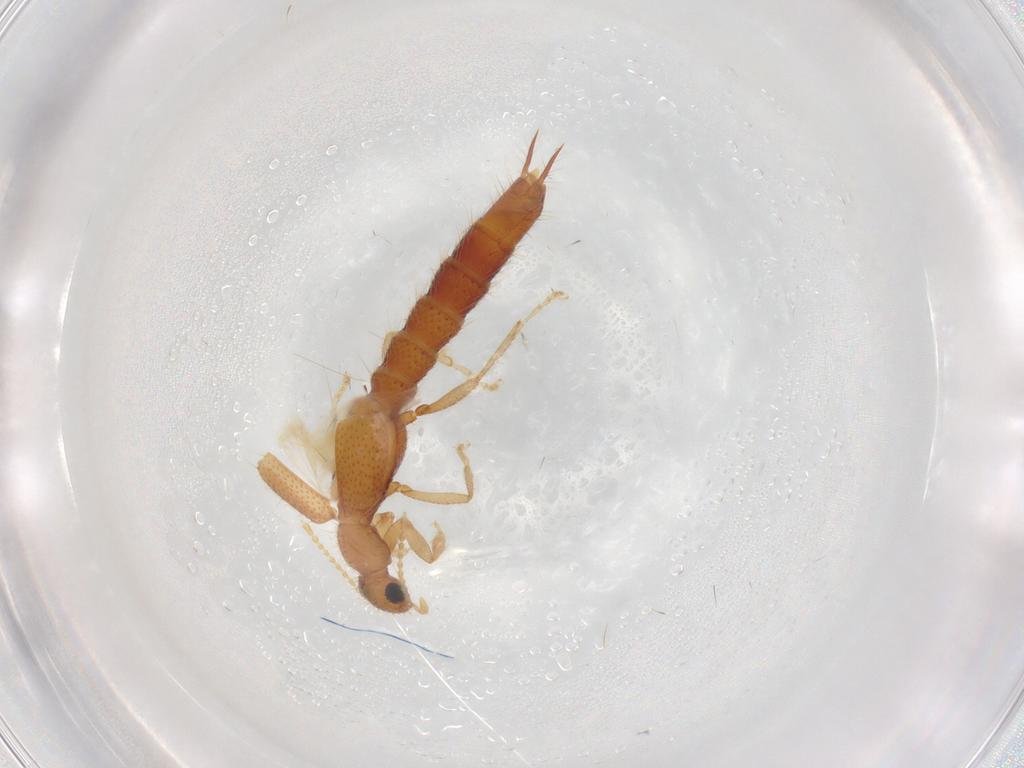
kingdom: Animalia
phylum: Arthropoda
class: Insecta
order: Coleoptera
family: Staphylinidae
